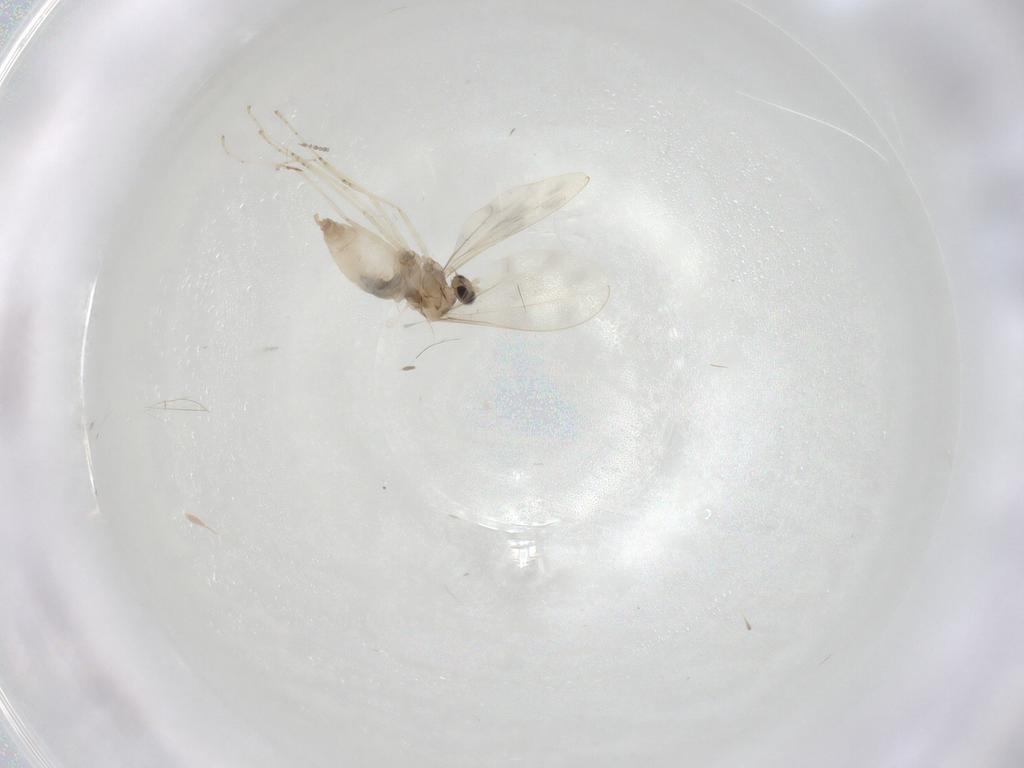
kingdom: Animalia
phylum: Arthropoda
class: Insecta
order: Diptera
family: Cecidomyiidae
